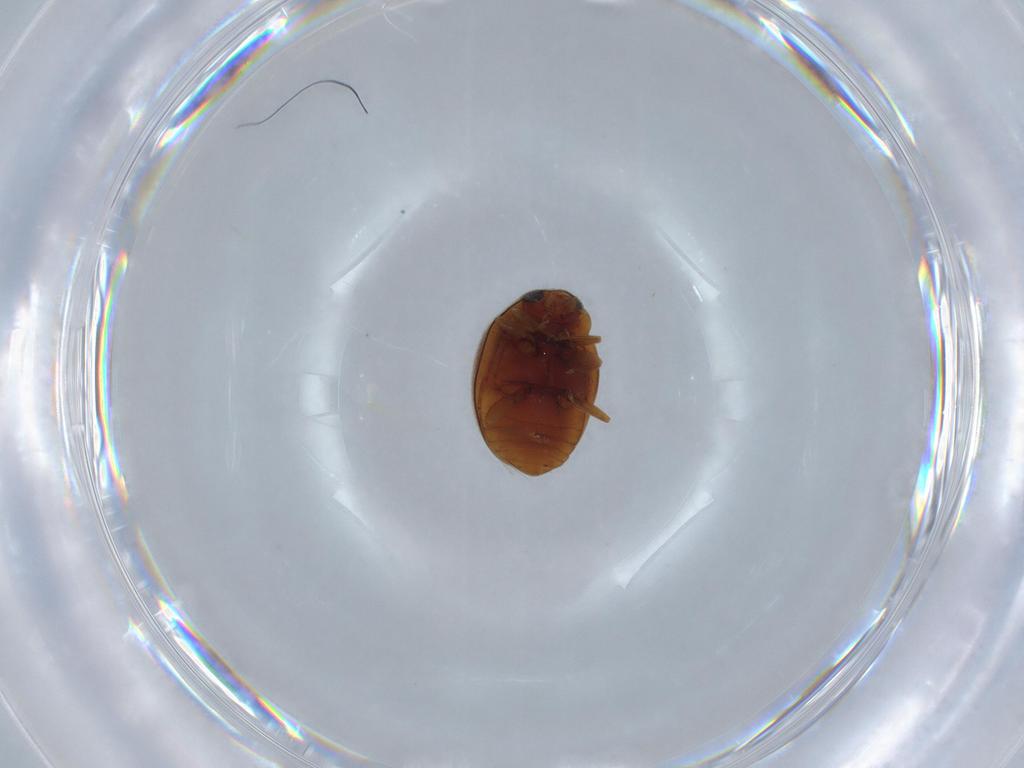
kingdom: Animalia
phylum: Arthropoda
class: Insecta
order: Coleoptera
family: Coccinellidae
